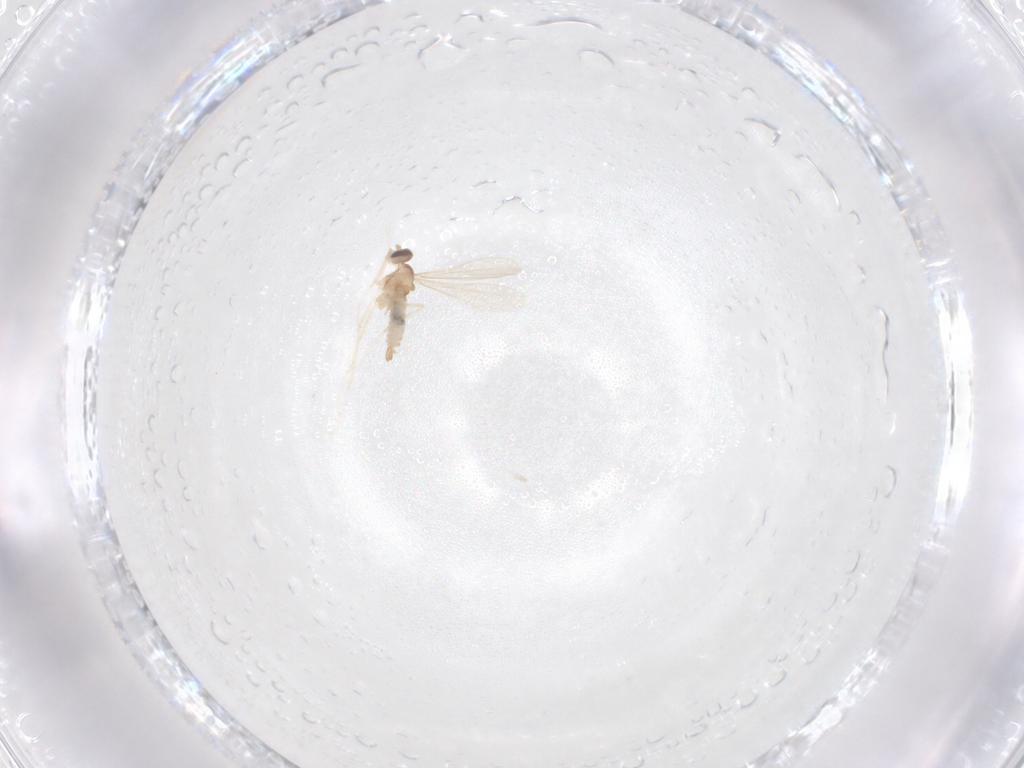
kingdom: Animalia
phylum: Arthropoda
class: Insecta
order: Diptera
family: Cecidomyiidae
